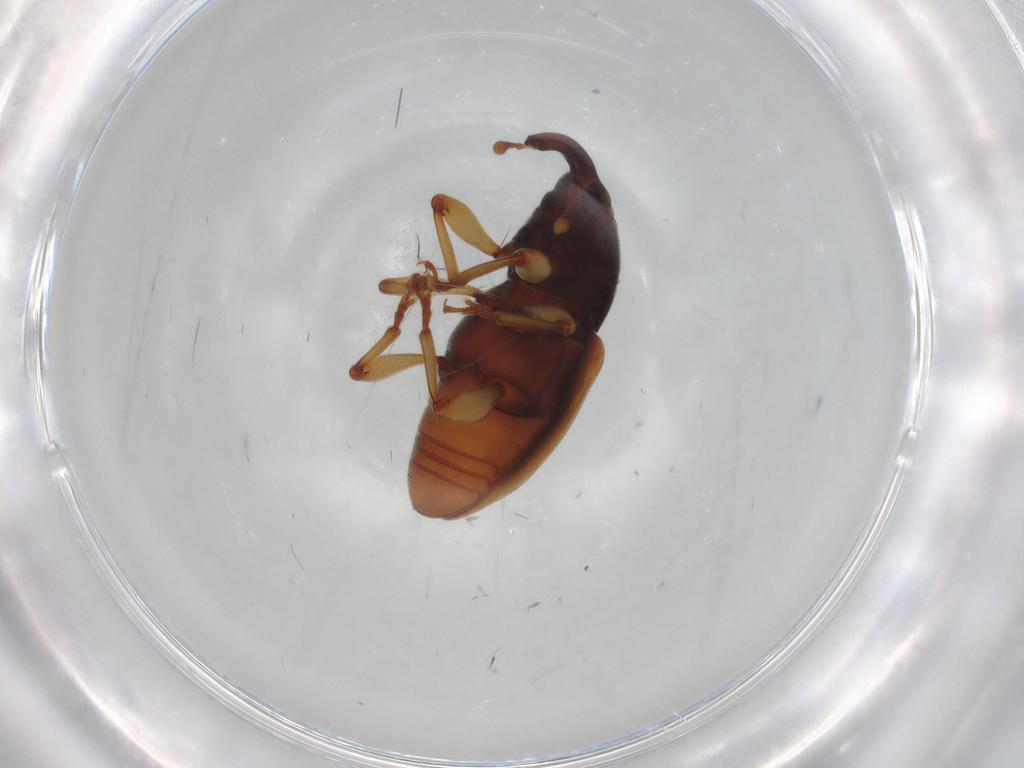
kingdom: Animalia
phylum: Arthropoda
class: Insecta
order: Coleoptera
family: Curculionidae
